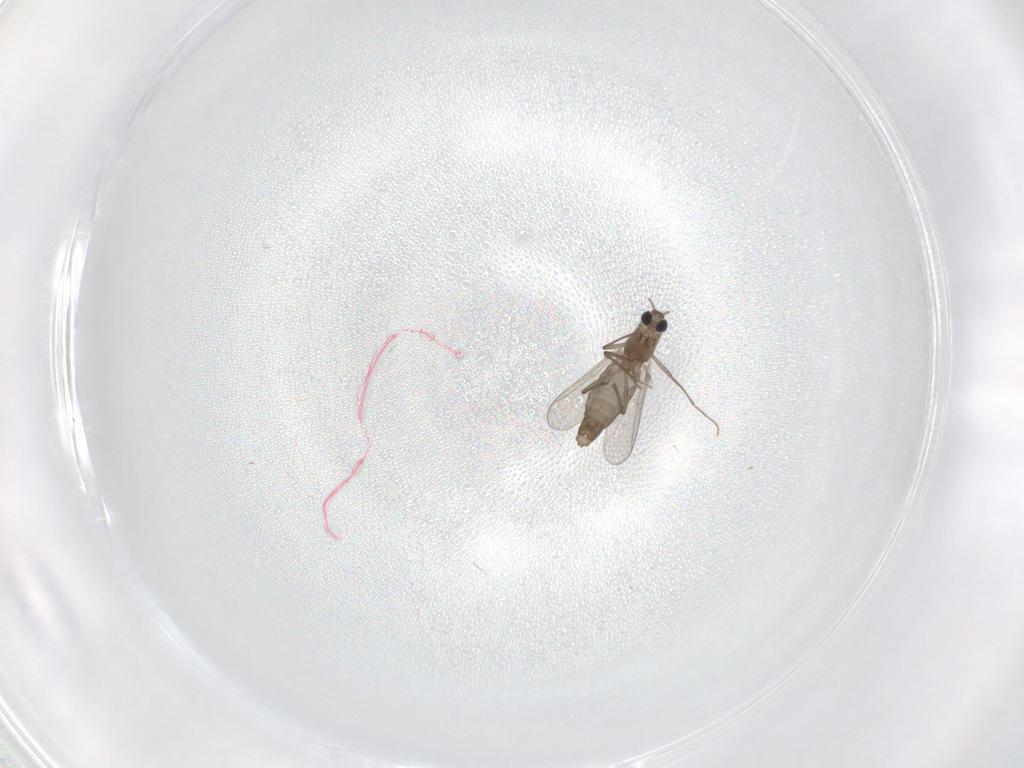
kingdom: Animalia
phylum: Arthropoda
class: Insecta
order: Diptera
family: Chironomidae
